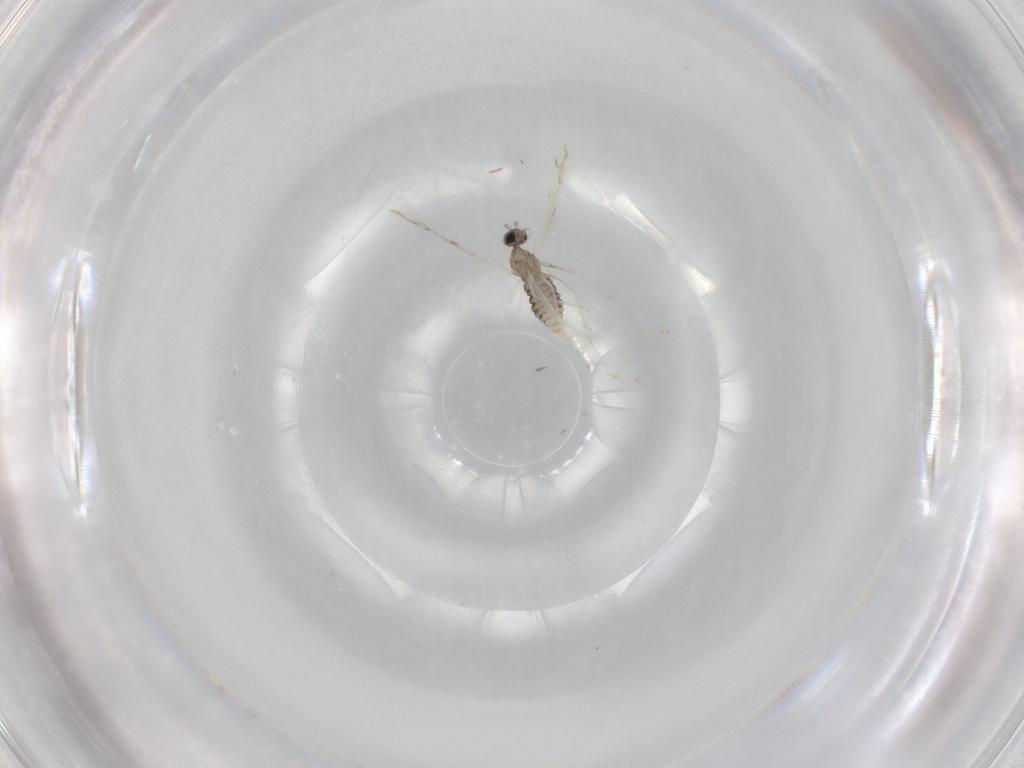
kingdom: Animalia
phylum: Arthropoda
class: Insecta
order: Diptera
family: Cecidomyiidae
